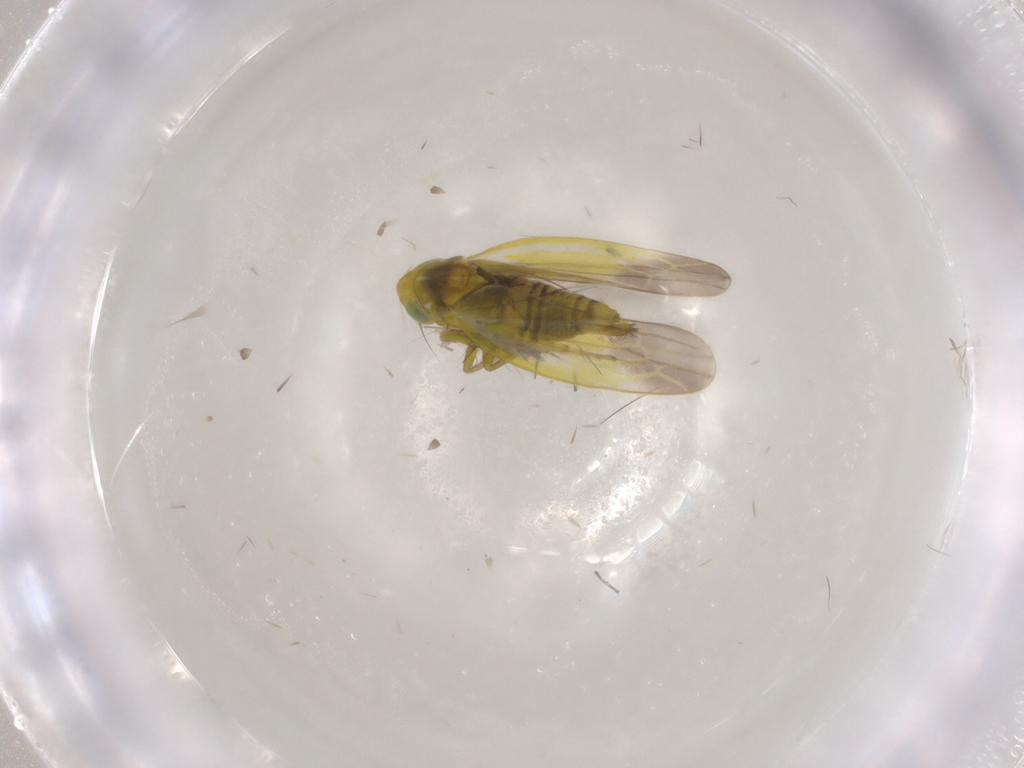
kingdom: Animalia
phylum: Arthropoda
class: Insecta
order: Hemiptera
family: Cicadellidae
